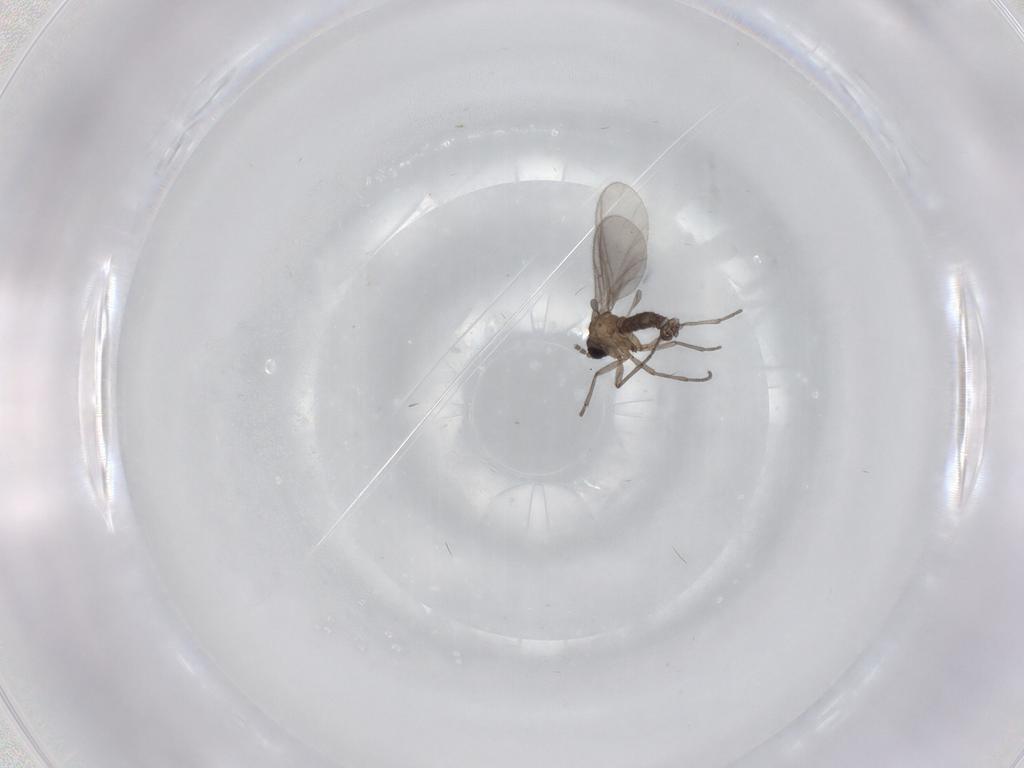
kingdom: Animalia
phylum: Arthropoda
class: Insecta
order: Diptera
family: Sciaridae
